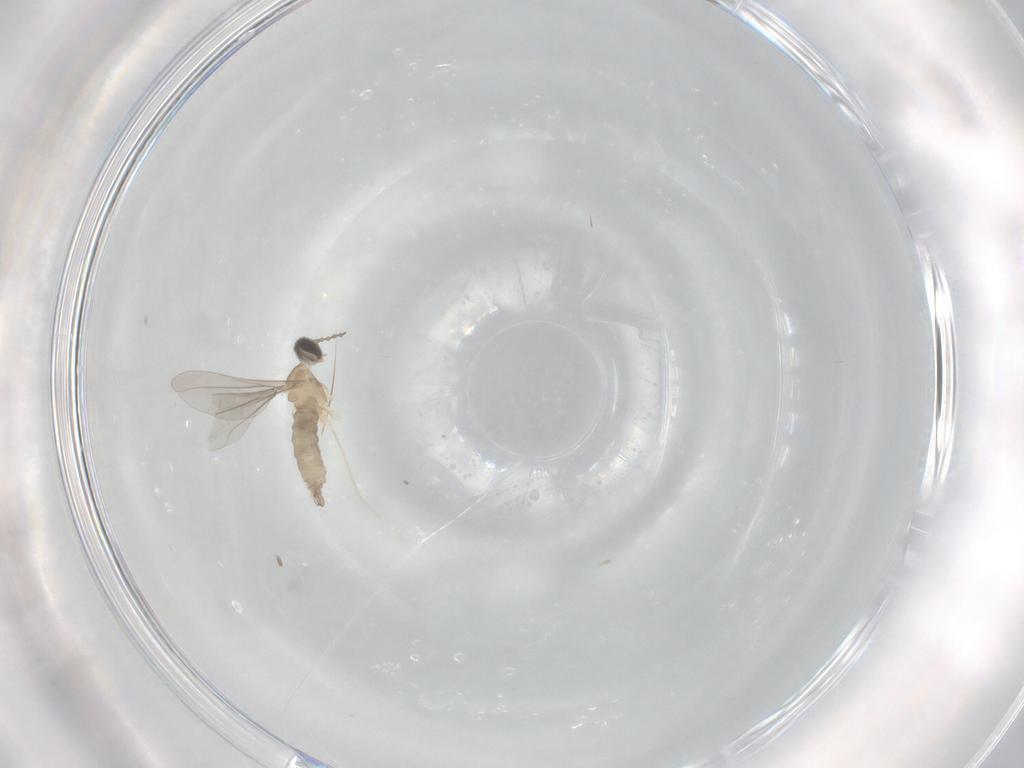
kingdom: Animalia
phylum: Arthropoda
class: Insecta
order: Diptera
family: Cecidomyiidae
